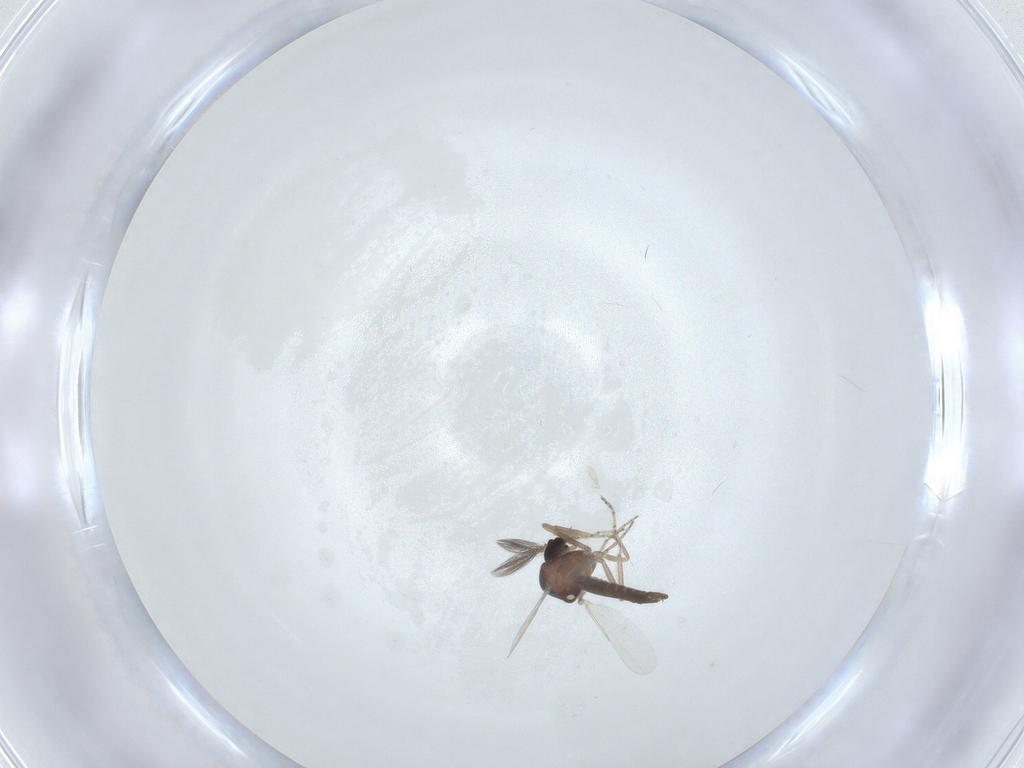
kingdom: Animalia
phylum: Arthropoda
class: Insecta
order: Diptera
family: Ceratopogonidae
